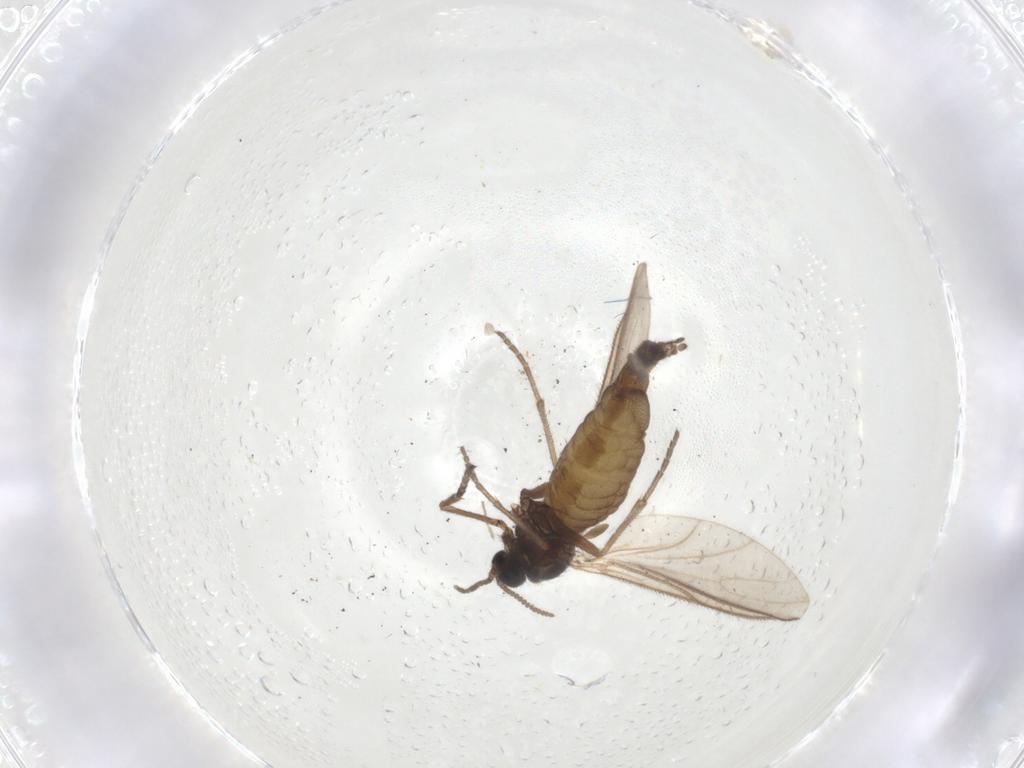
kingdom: Animalia
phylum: Arthropoda
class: Insecta
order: Diptera
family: Sciaridae
